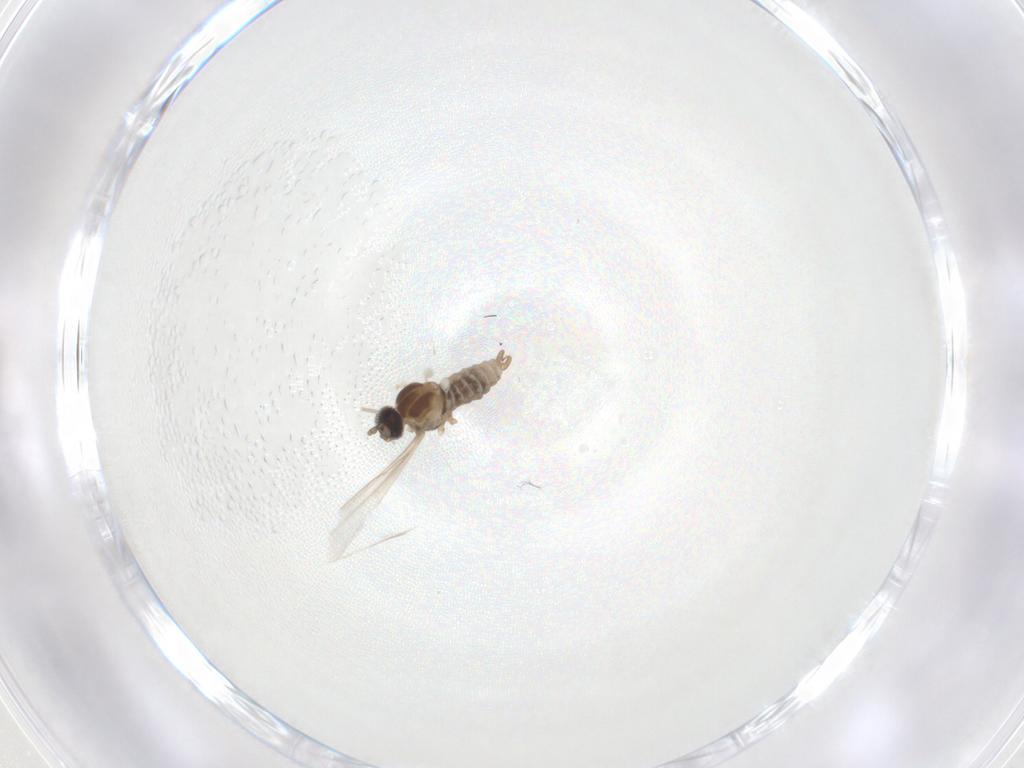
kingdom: Animalia
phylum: Arthropoda
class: Insecta
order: Diptera
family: Cecidomyiidae
